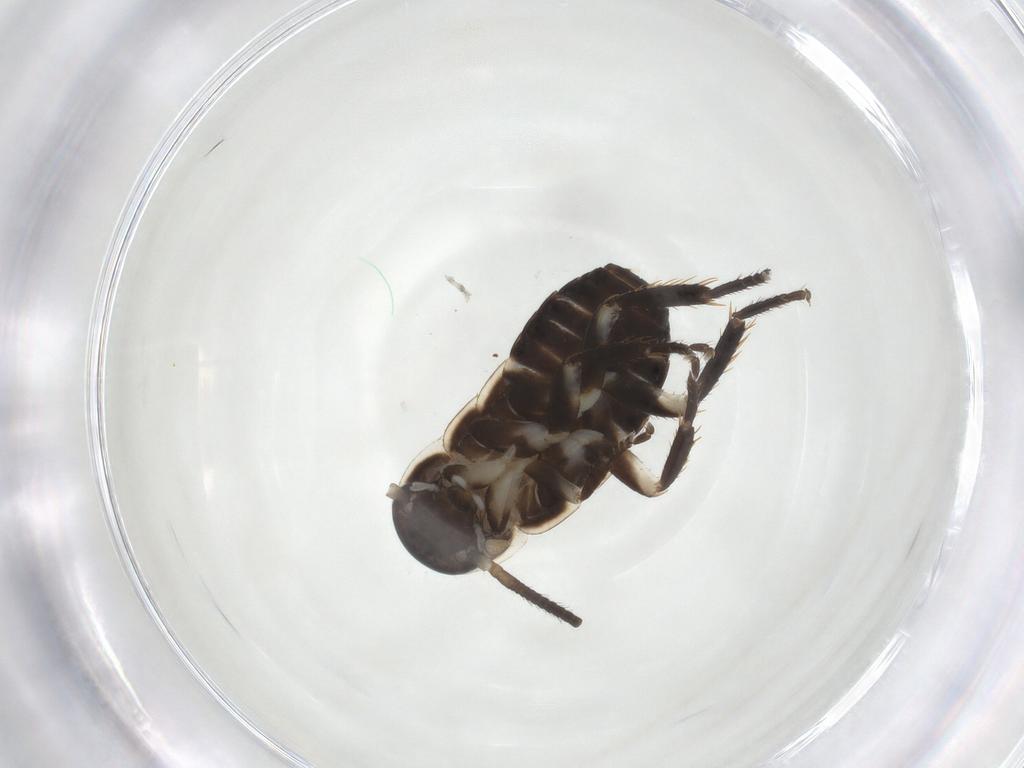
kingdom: Animalia
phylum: Arthropoda
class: Insecta
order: Blattodea
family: Ectobiidae
